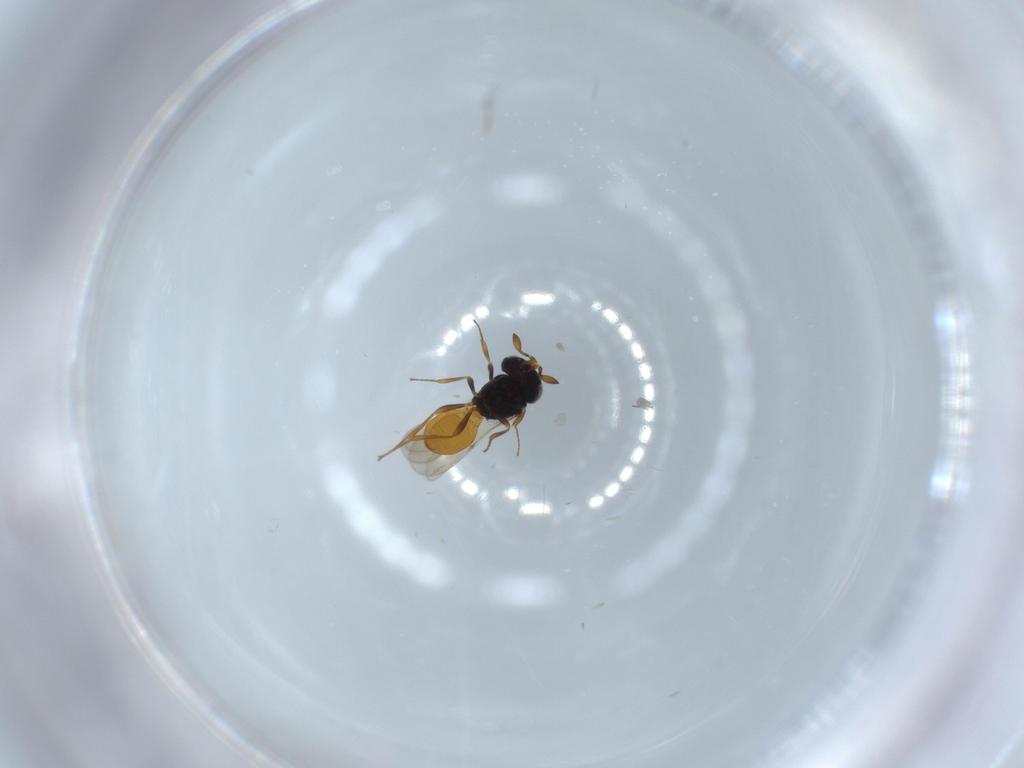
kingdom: Animalia
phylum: Arthropoda
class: Insecta
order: Hymenoptera
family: Scelionidae
